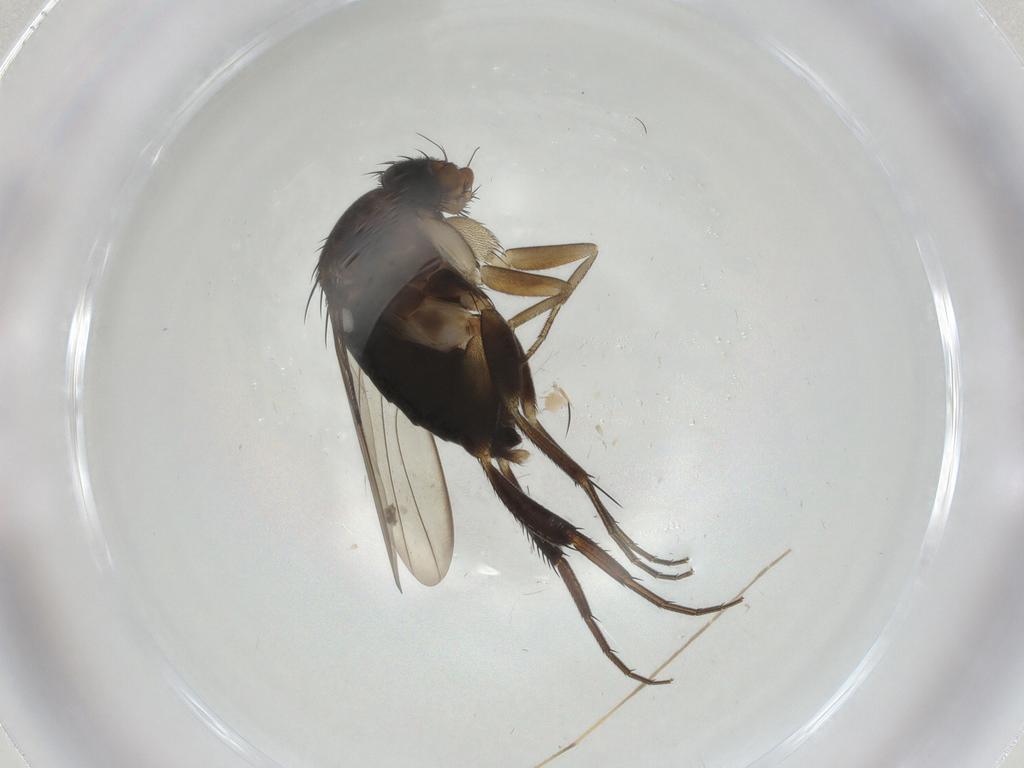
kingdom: Animalia
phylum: Arthropoda
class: Insecta
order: Diptera
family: Phoridae
